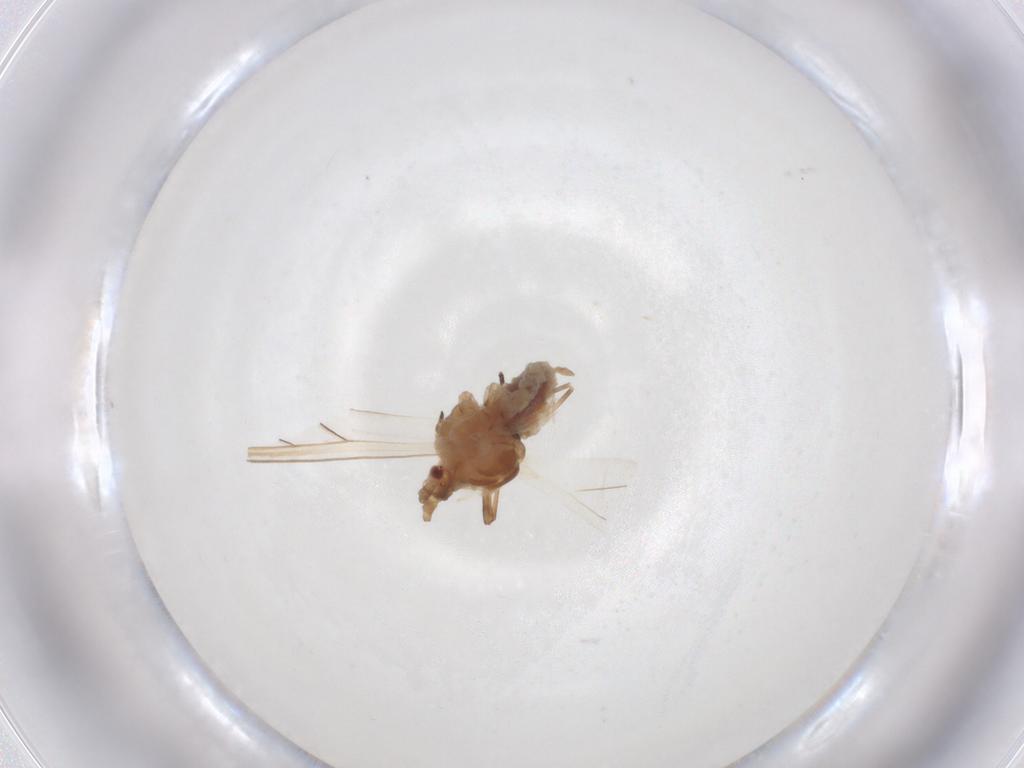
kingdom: Animalia
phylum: Arthropoda
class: Insecta
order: Hemiptera
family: Aphididae
